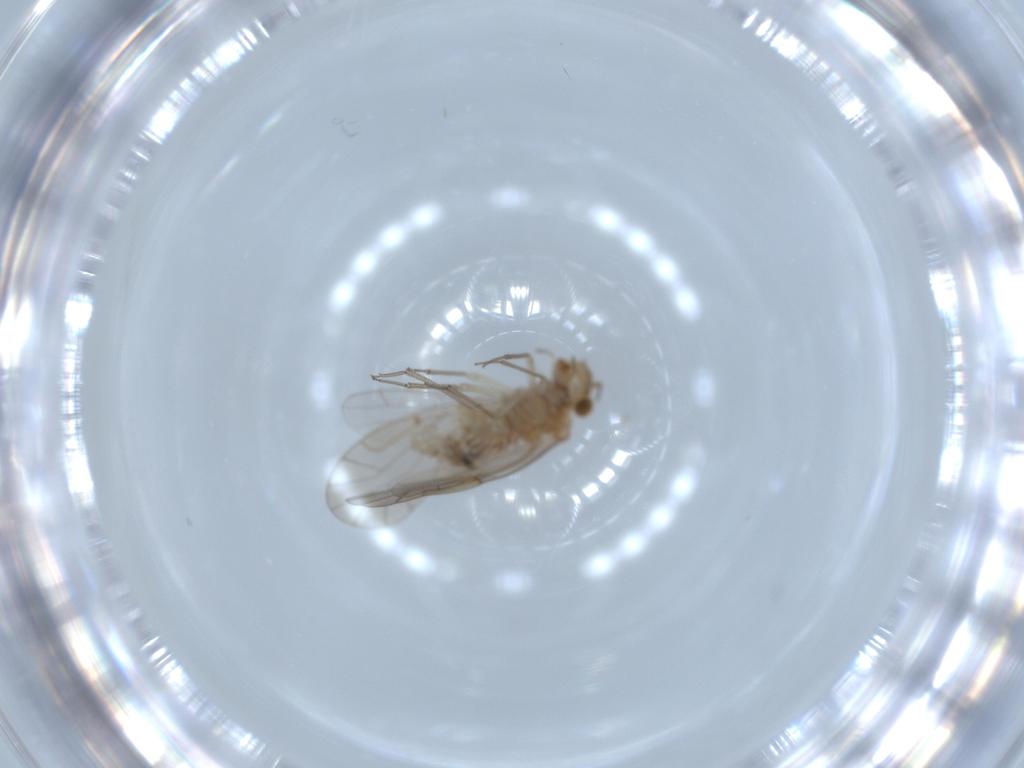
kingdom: Animalia
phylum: Arthropoda
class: Insecta
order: Psocodea
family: Lachesillidae
